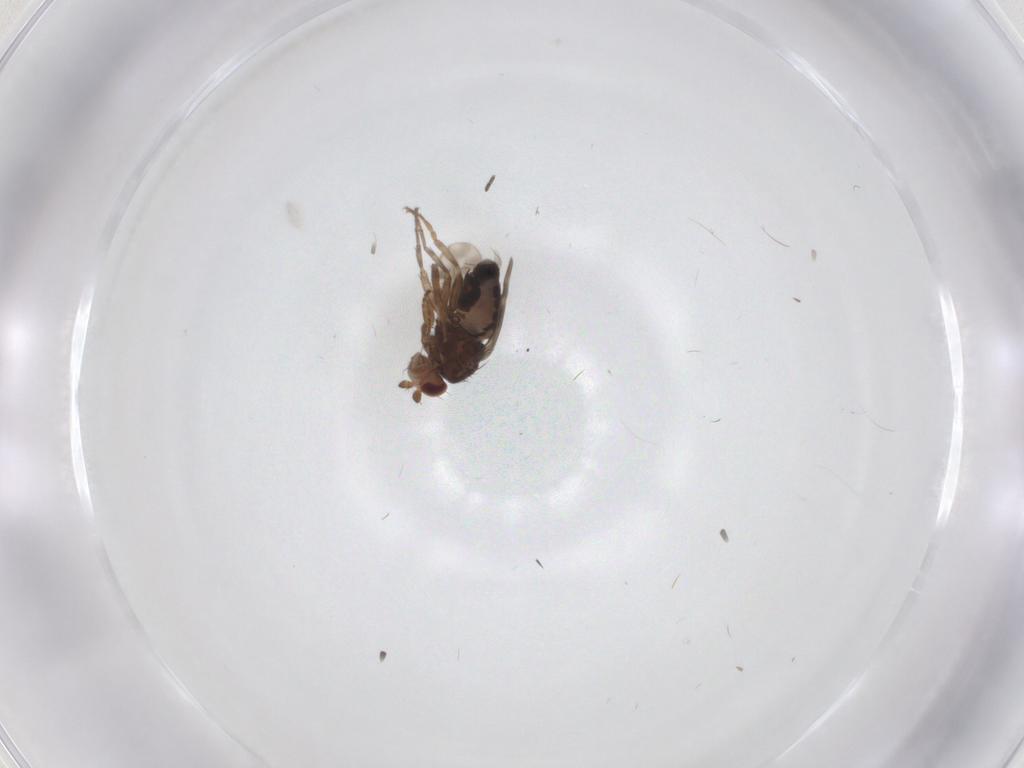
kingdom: Animalia
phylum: Arthropoda
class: Insecta
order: Diptera
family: Sphaeroceridae
